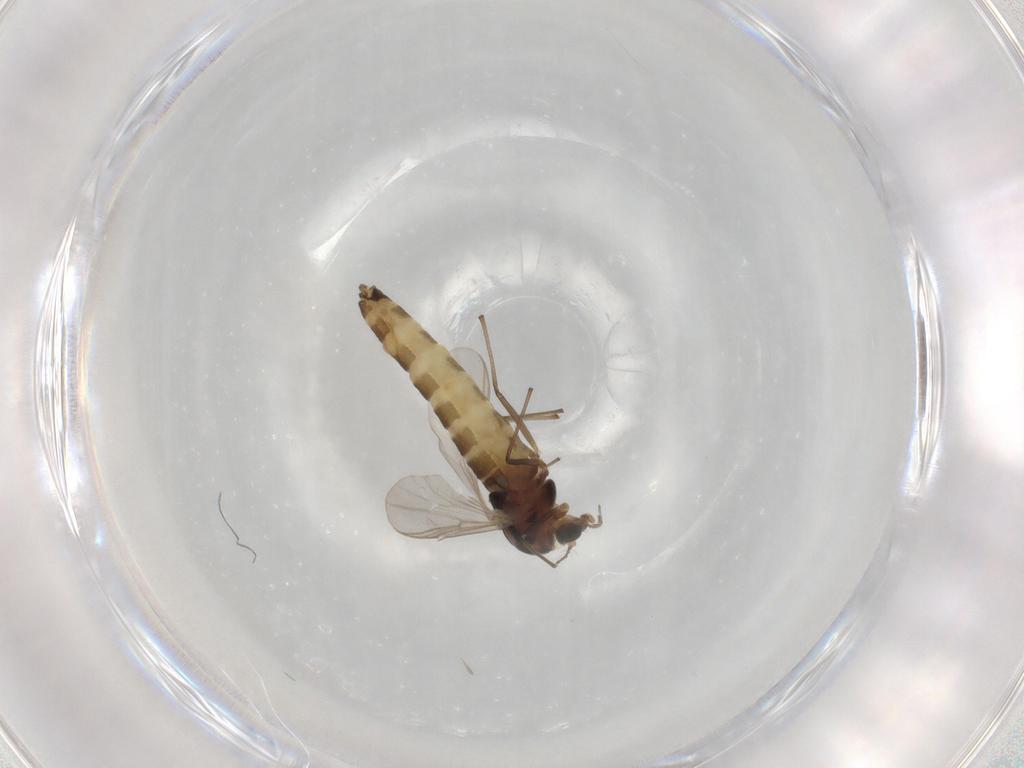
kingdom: Animalia
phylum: Arthropoda
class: Insecta
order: Diptera
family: Chironomidae
